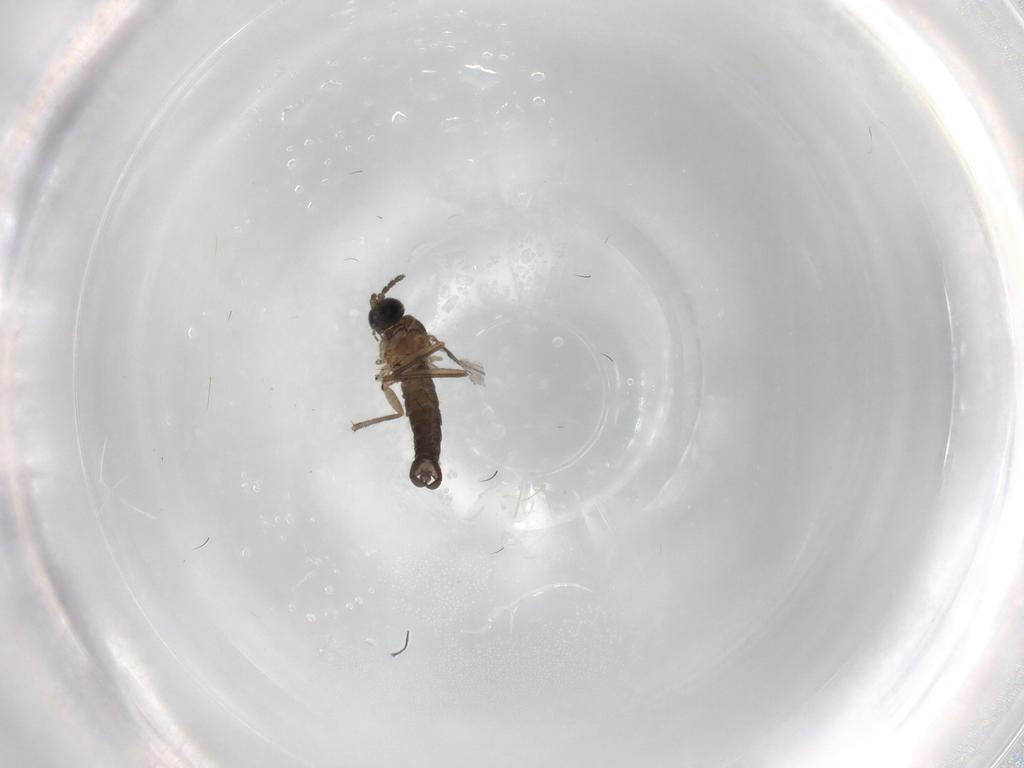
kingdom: Animalia
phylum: Arthropoda
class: Insecta
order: Diptera
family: Sciaridae
